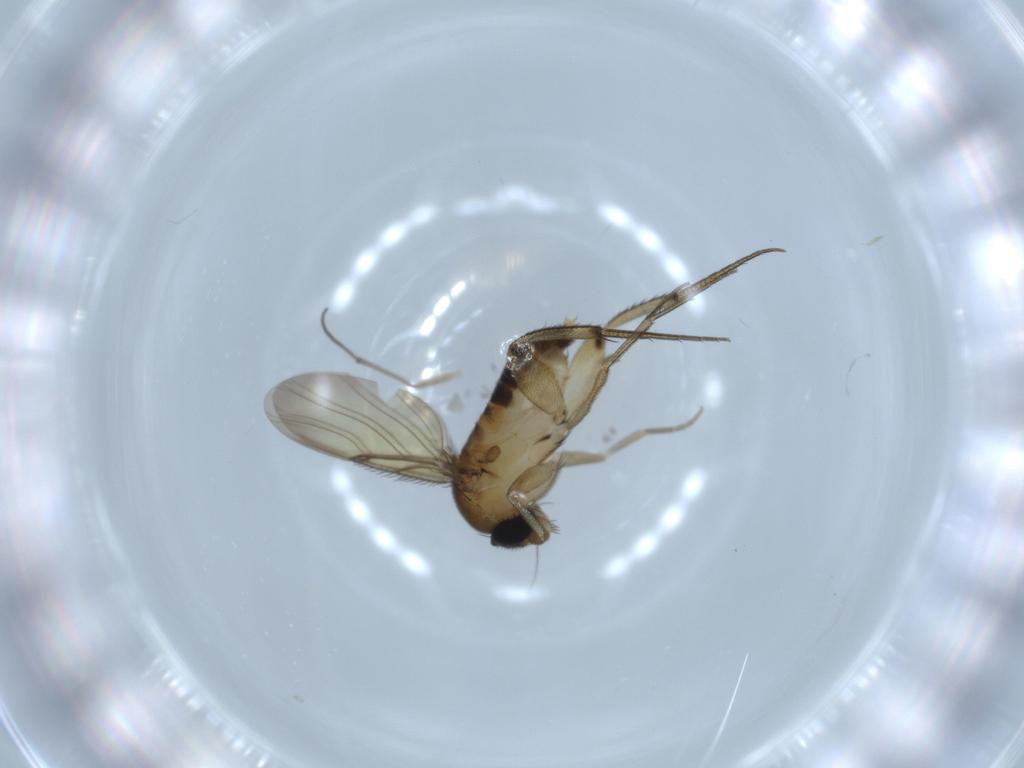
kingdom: Animalia
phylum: Arthropoda
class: Insecta
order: Diptera
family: Phoridae
